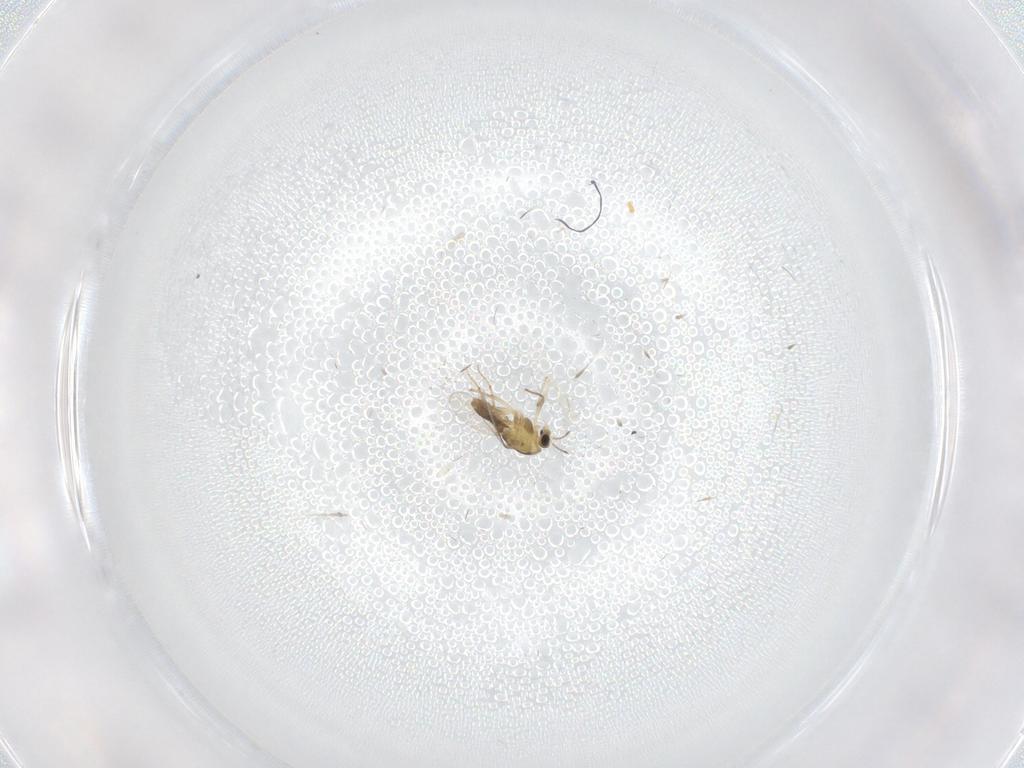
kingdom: Animalia
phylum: Arthropoda
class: Insecta
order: Diptera
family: Chironomidae
